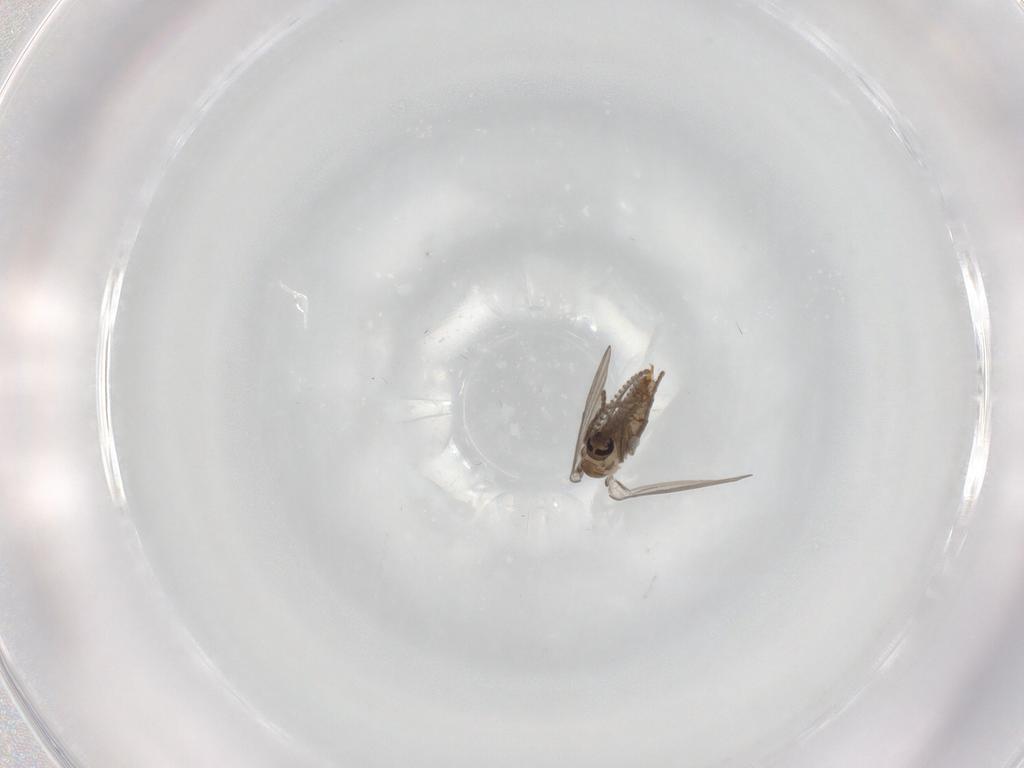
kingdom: Animalia
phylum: Arthropoda
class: Insecta
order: Diptera
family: Psychodidae
